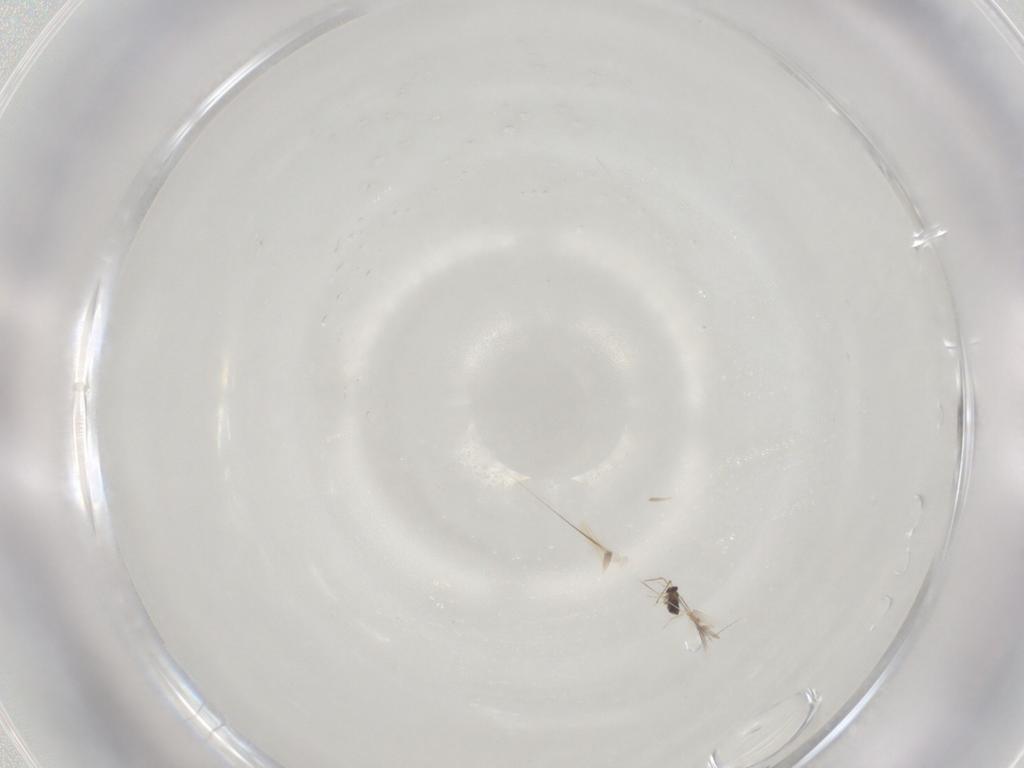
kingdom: Animalia
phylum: Arthropoda
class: Insecta
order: Diptera
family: Cecidomyiidae
